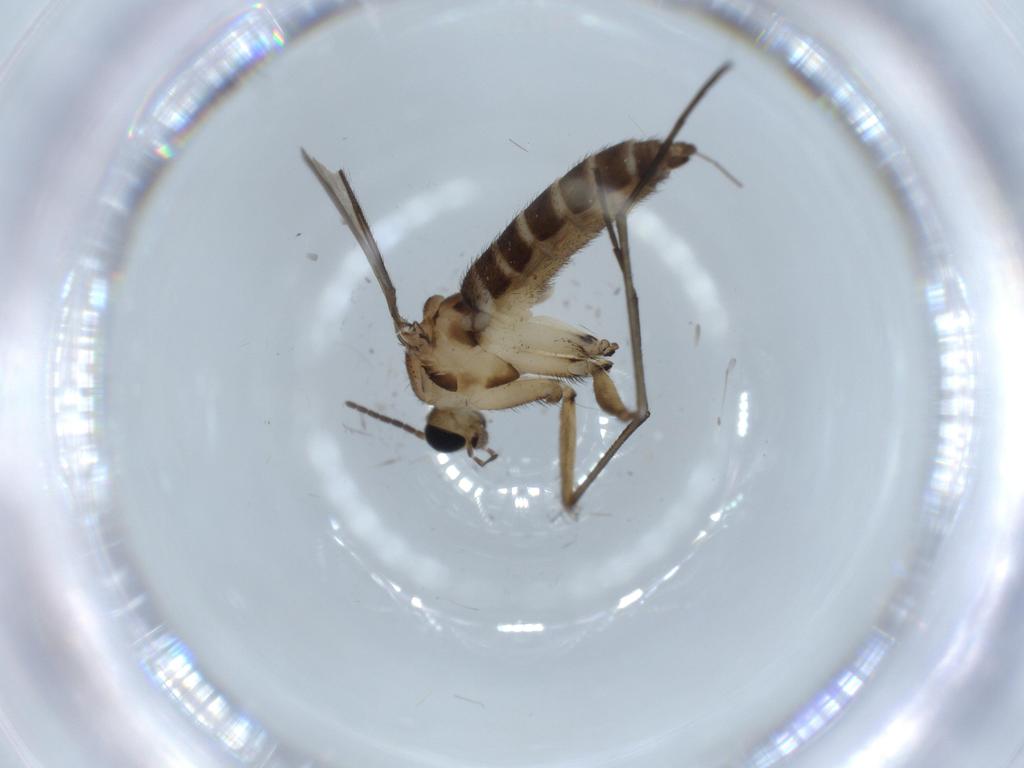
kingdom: Animalia
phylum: Arthropoda
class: Insecta
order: Diptera
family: Sciaridae
